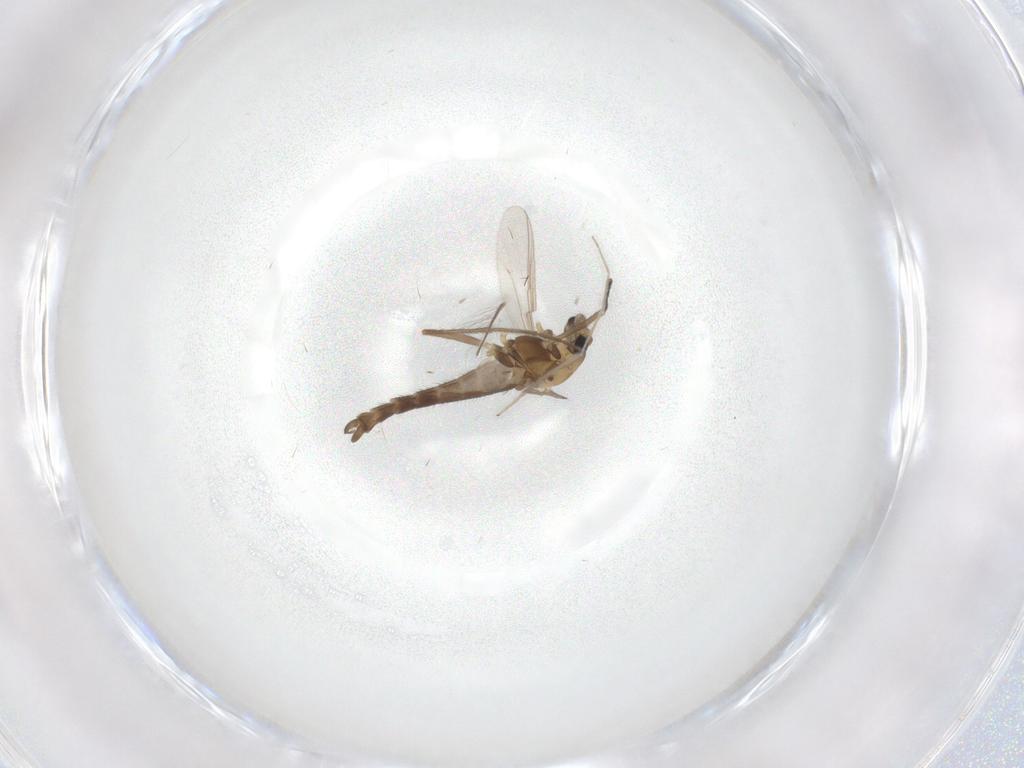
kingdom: Animalia
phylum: Arthropoda
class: Insecta
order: Diptera
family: Chironomidae
